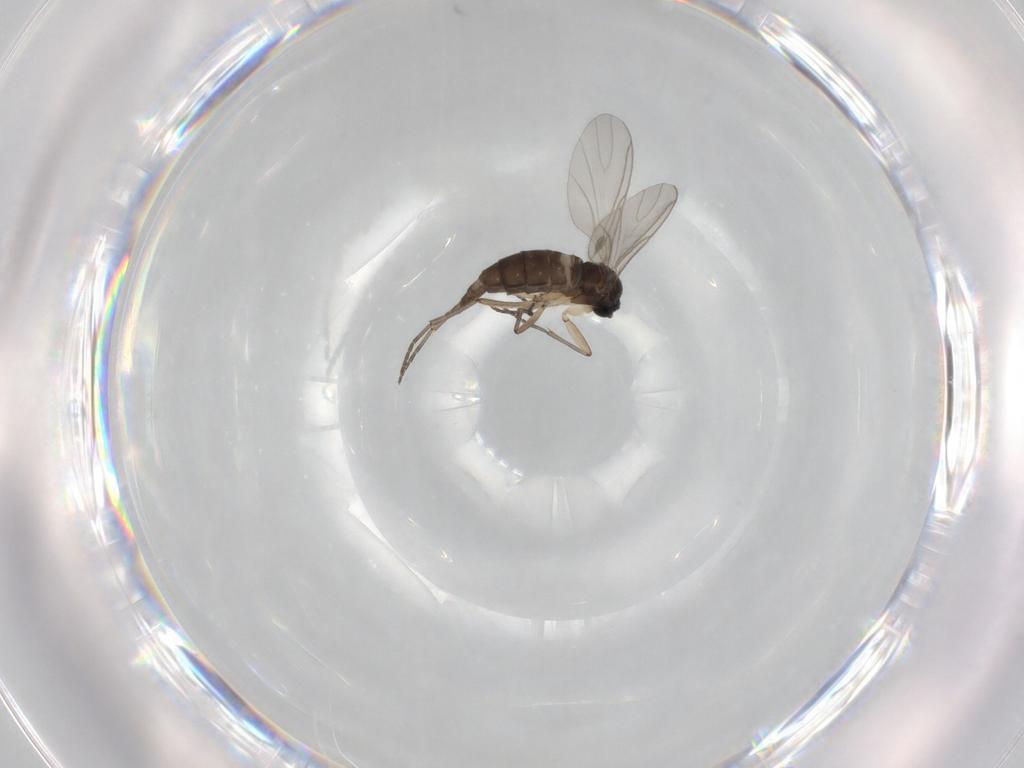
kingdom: Animalia
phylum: Arthropoda
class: Insecta
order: Diptera
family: Sciaridae
